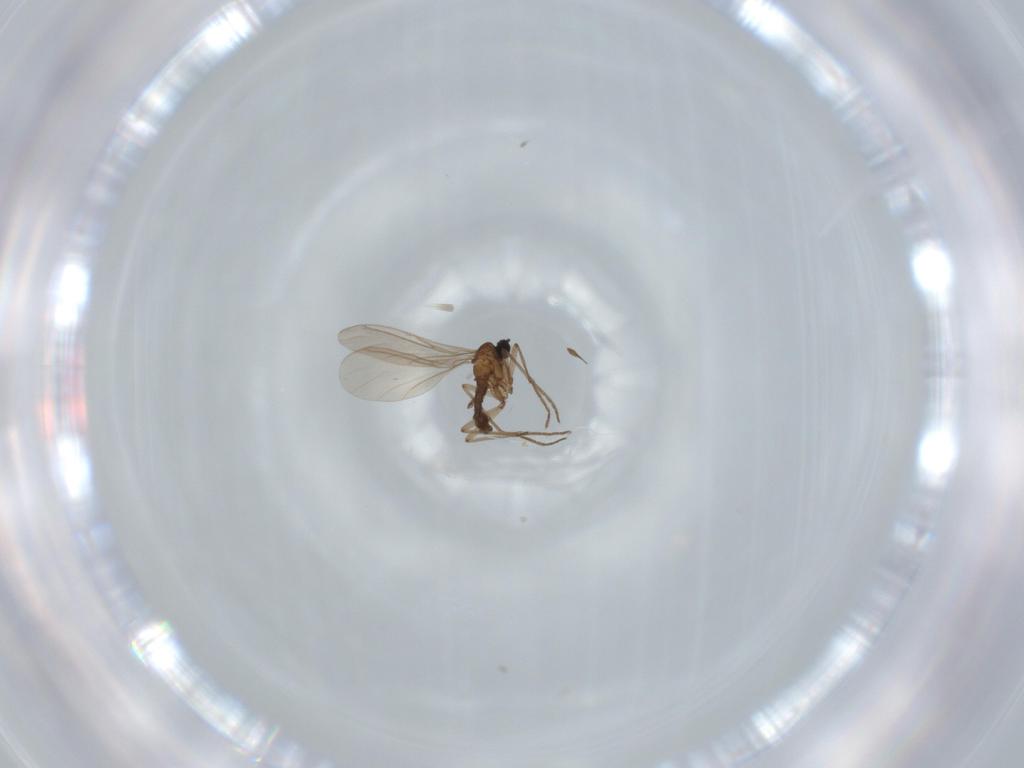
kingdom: Animalia
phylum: Arthropoda
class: Insecta
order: Diptera
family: Sciaridae
